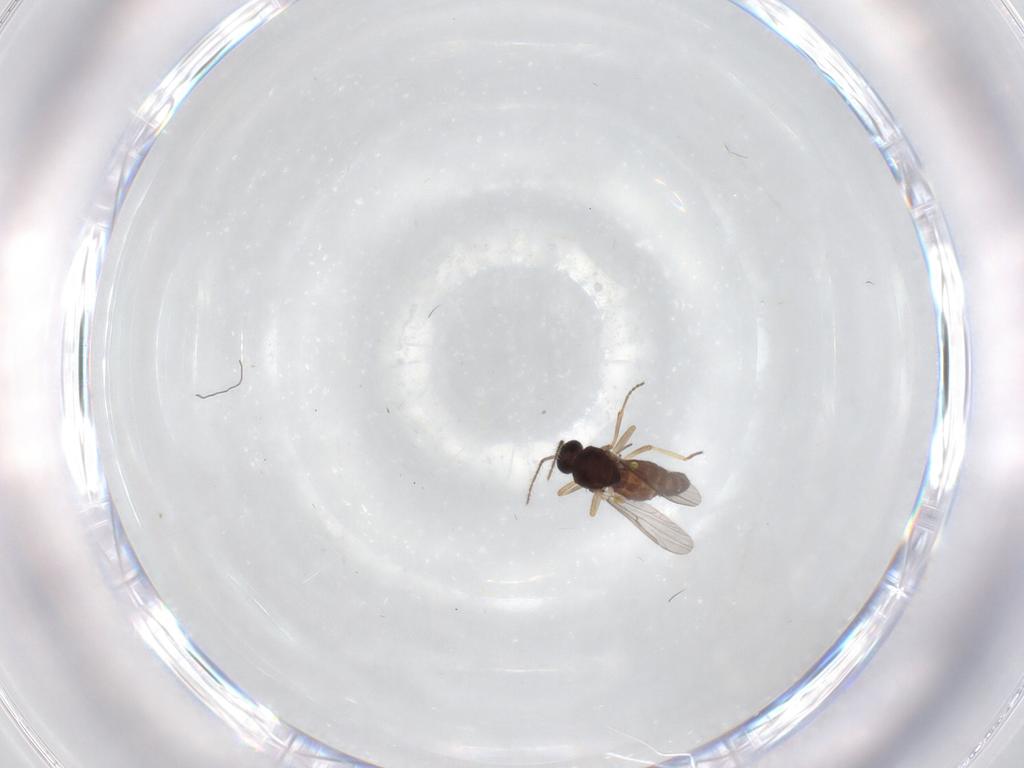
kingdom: Animalia
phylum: Arthropoda
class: Insecta
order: Diptera
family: Ceratopogonidae
